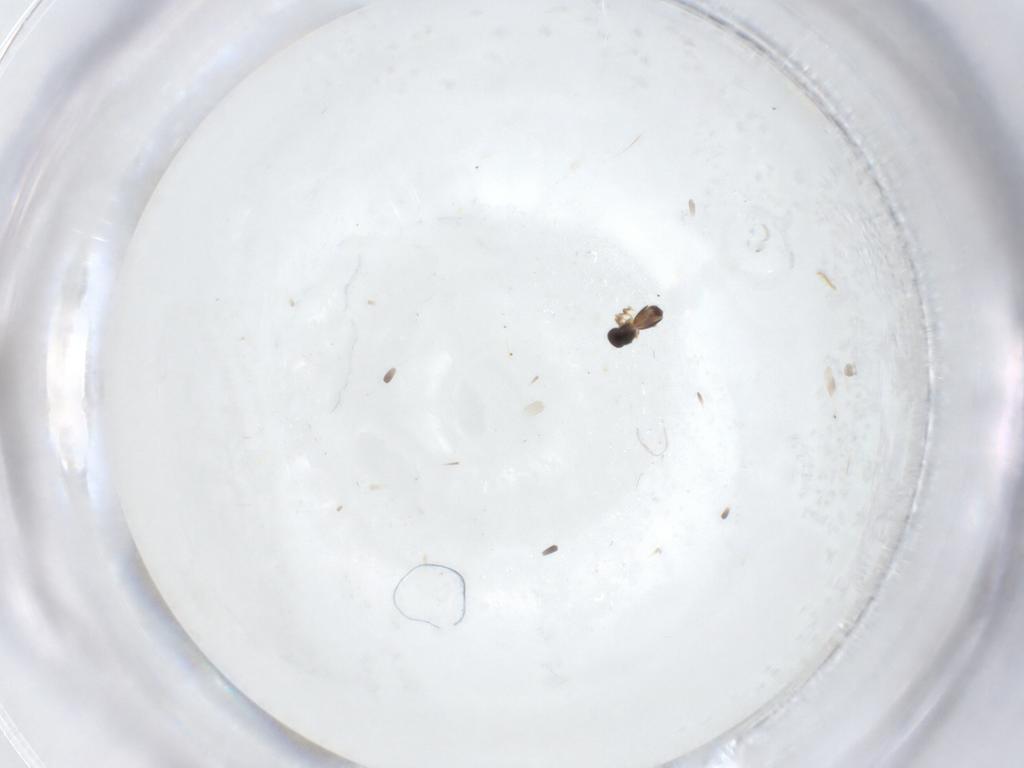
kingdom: Animalia
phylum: Arthropoda
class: Insecta
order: Hymenoptera
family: Platygastridae
